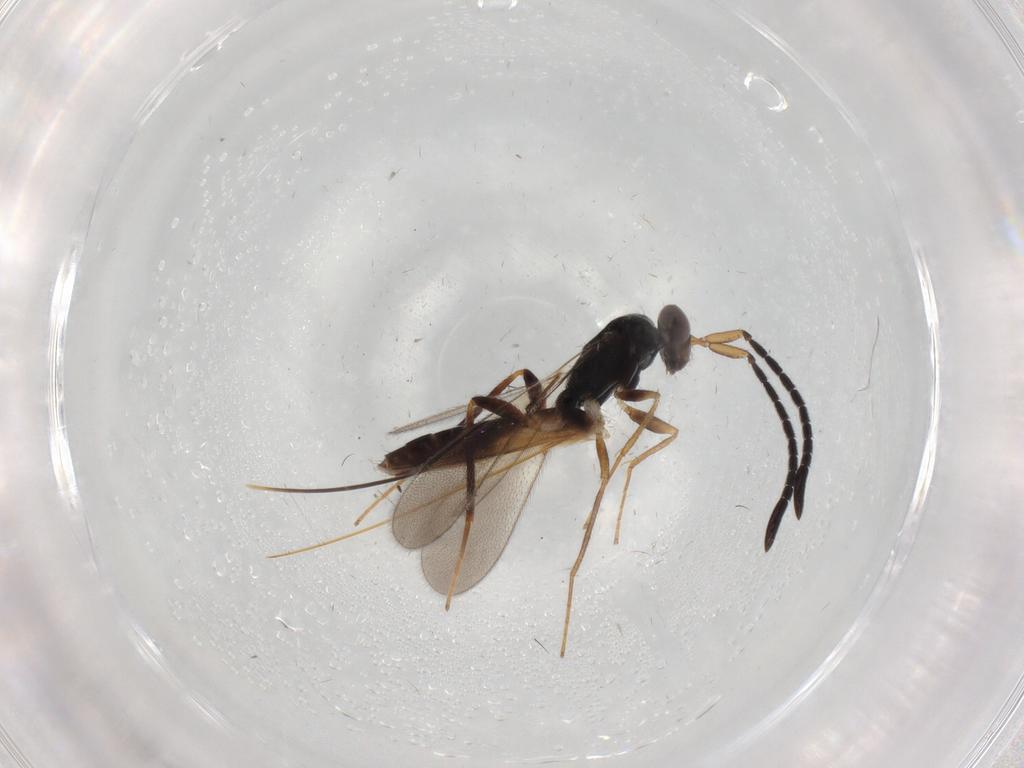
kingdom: Animalia
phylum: Arthropoda
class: Insecta
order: Hymenoptera
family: Mymaridae
